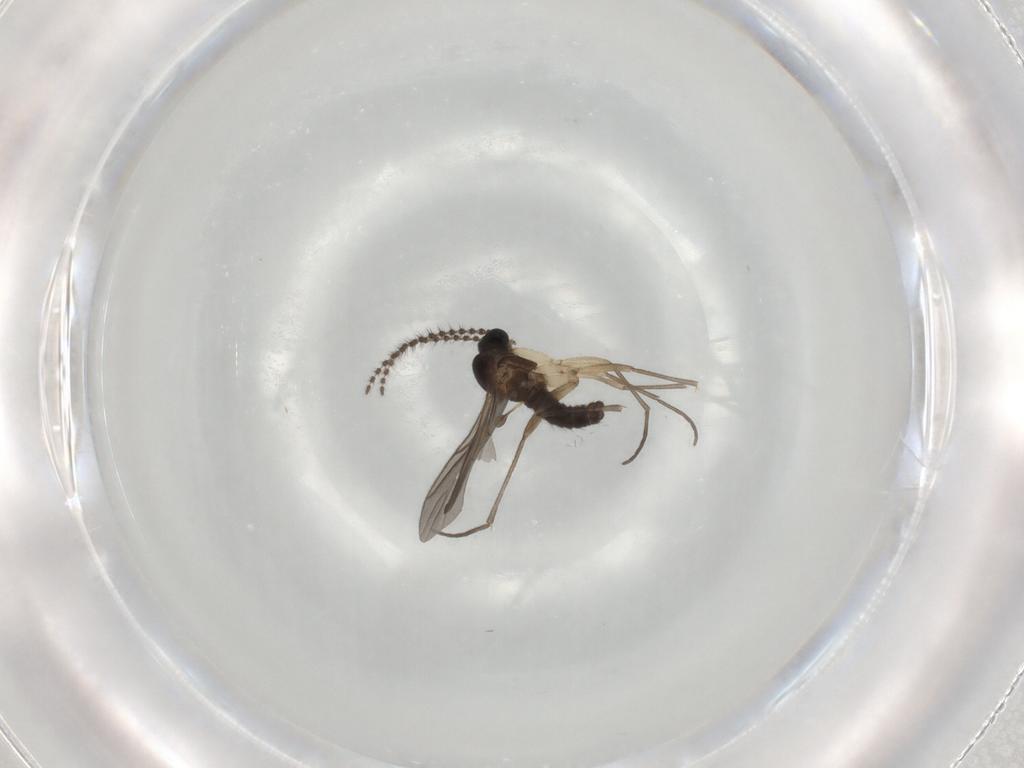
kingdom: Animalia
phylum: Arthropoda
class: Insecta
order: Diptera
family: Sciaridae
